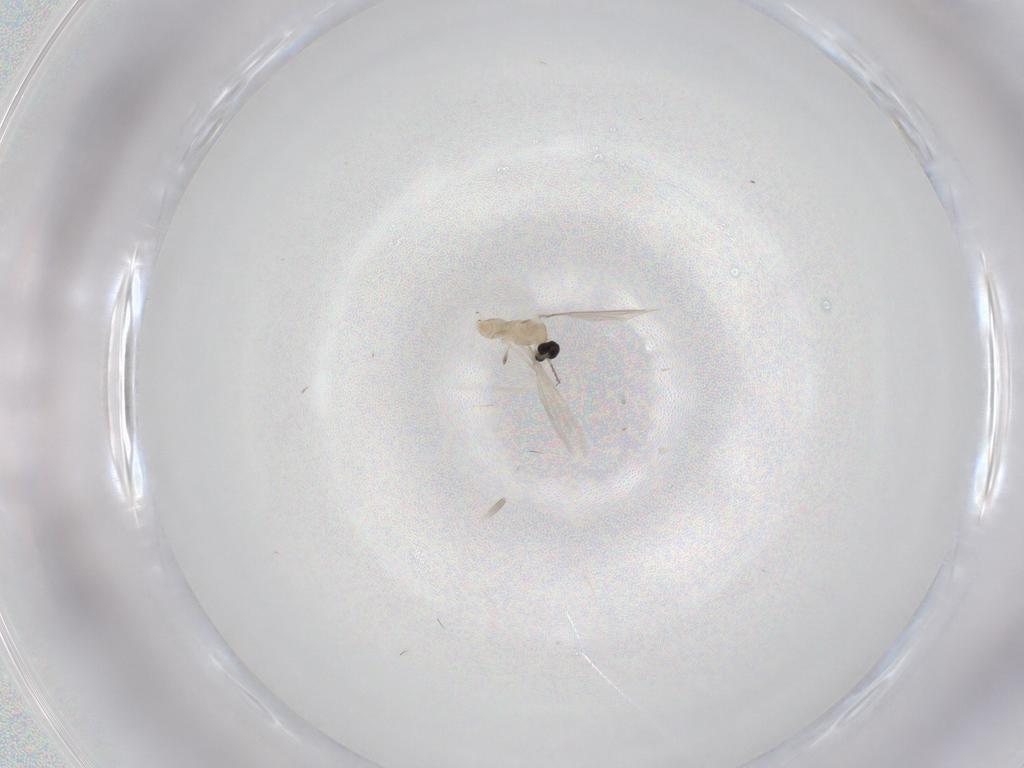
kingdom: Animalia
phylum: Arthropoda
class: Insecta
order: Diptera
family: Cecidomyiidae
